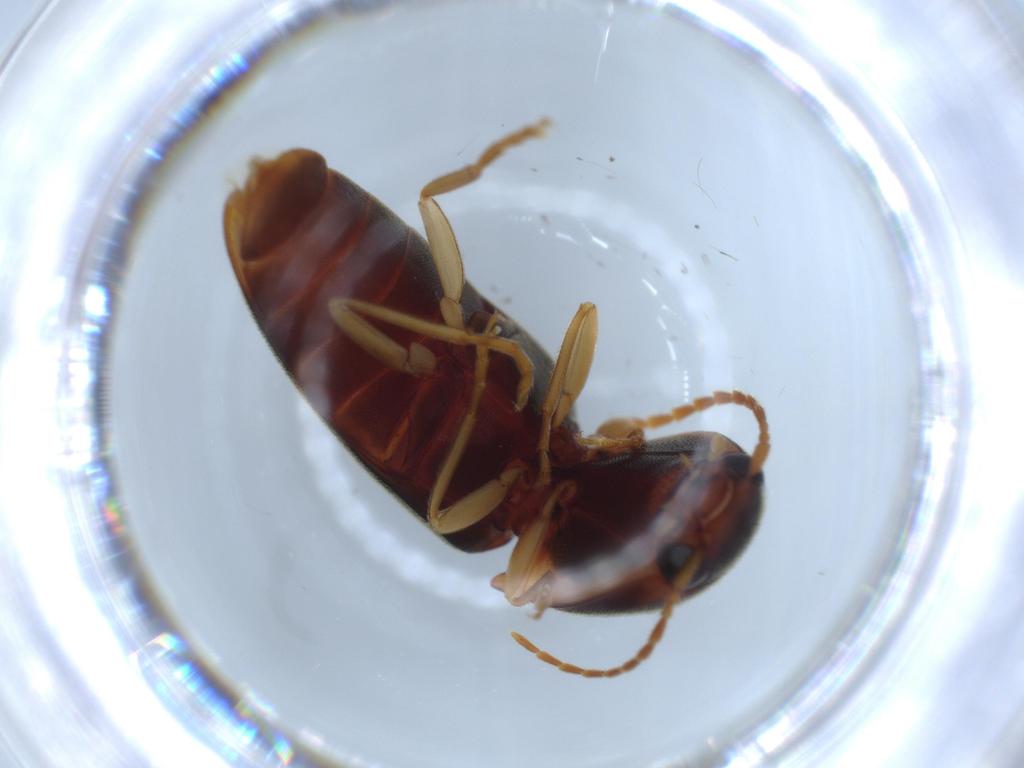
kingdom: Animalia
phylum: Arthropoda
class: Insecta
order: Coleoptera
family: Elateridae
